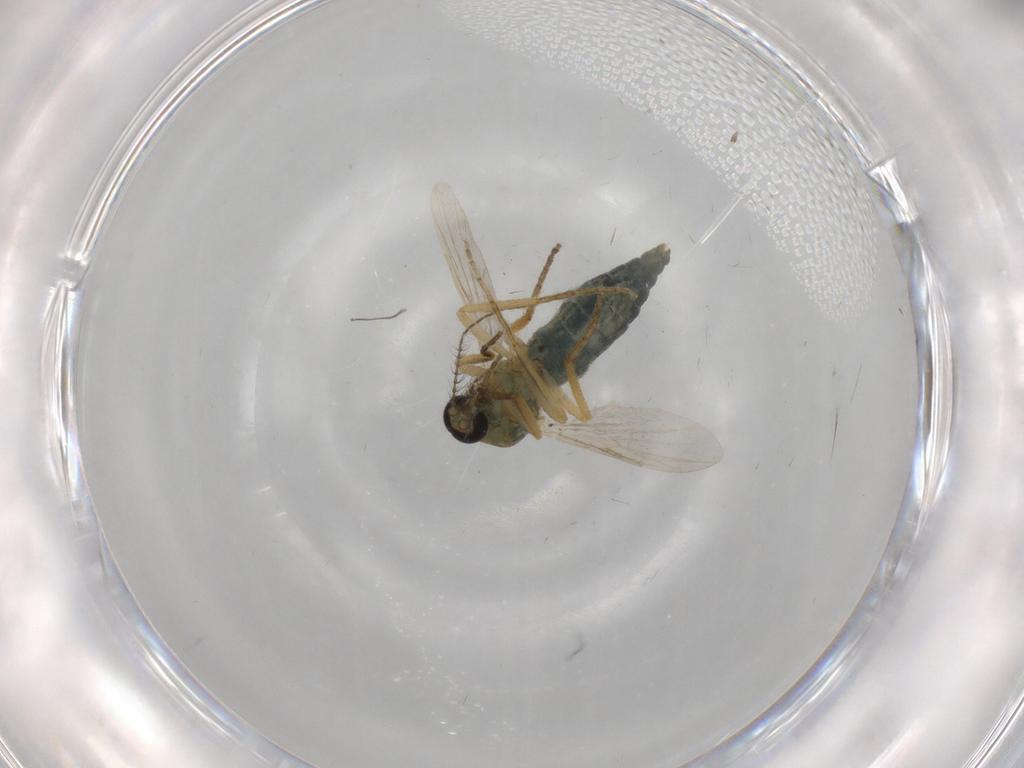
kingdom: Animalia
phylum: Arthropoda
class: Insecta
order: Diptera
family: Ceratopogonidae
